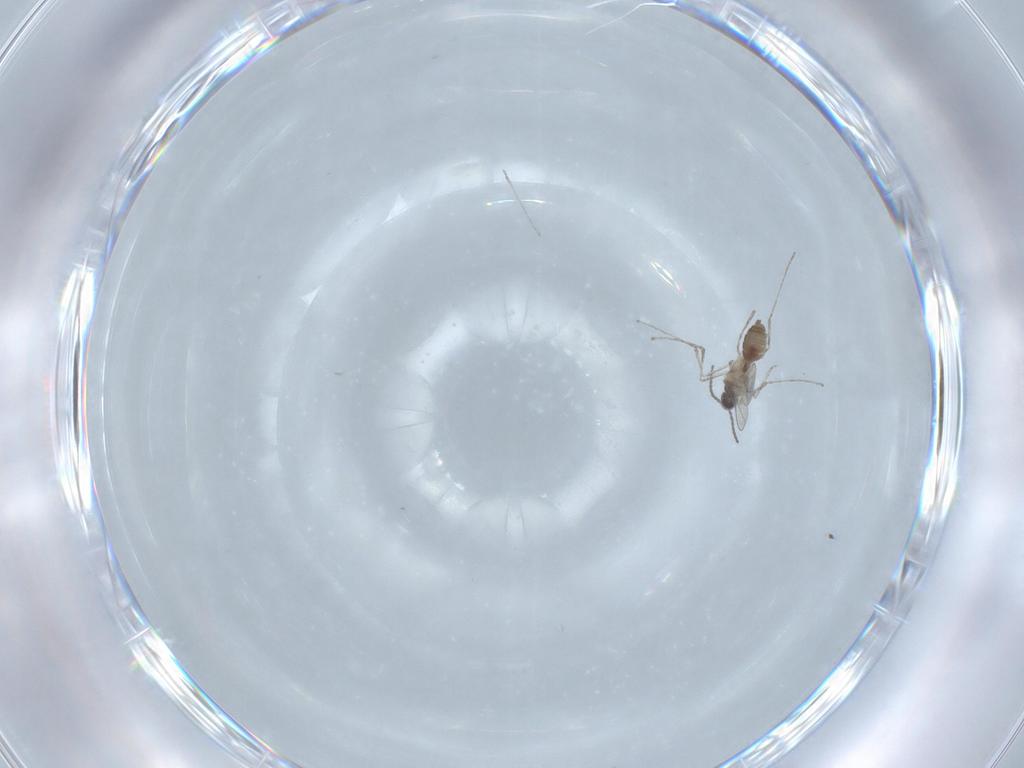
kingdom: Animalia
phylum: Arthropoda
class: Insecta
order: Diptera
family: Cecidomyiidae
